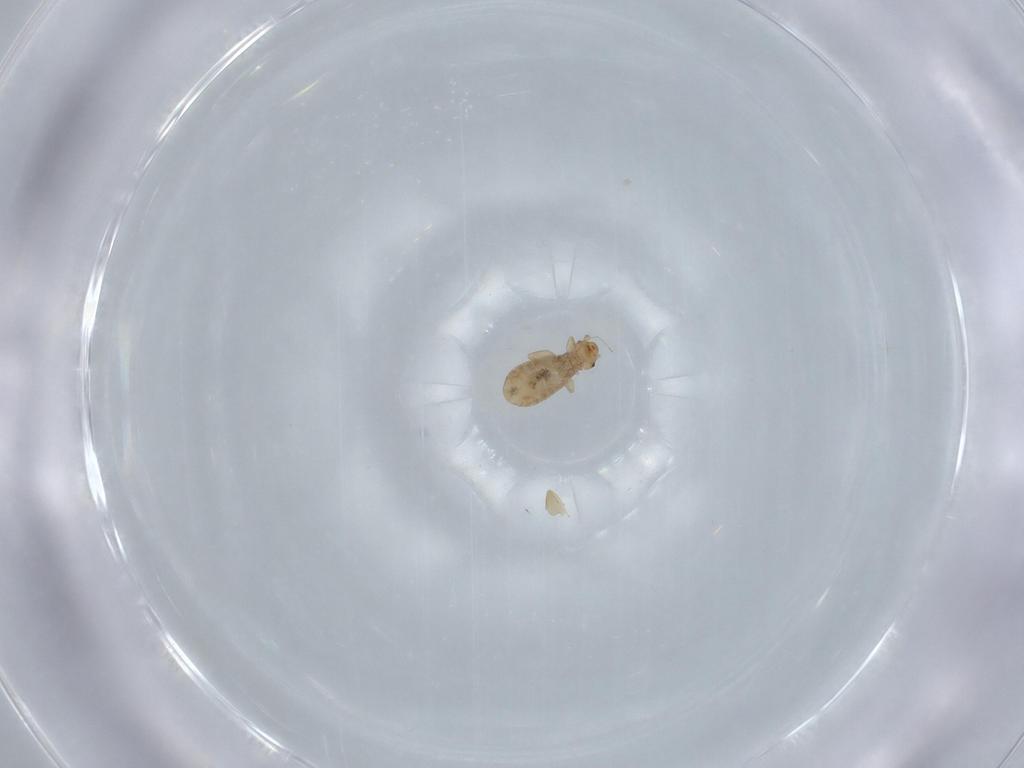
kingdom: Animalia
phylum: Arthropoda
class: Insecta
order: Psocodea
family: Liposcelididae
